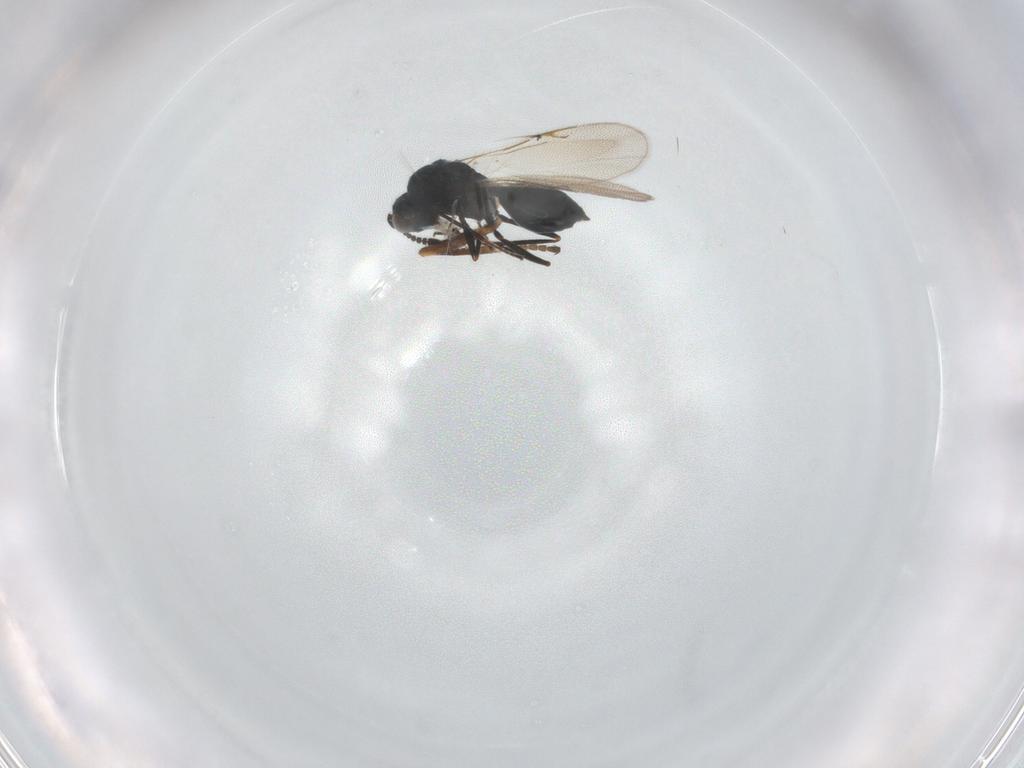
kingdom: Animalia
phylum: Arthropoda
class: Insecta
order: Hymenoptera
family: Braconidae
